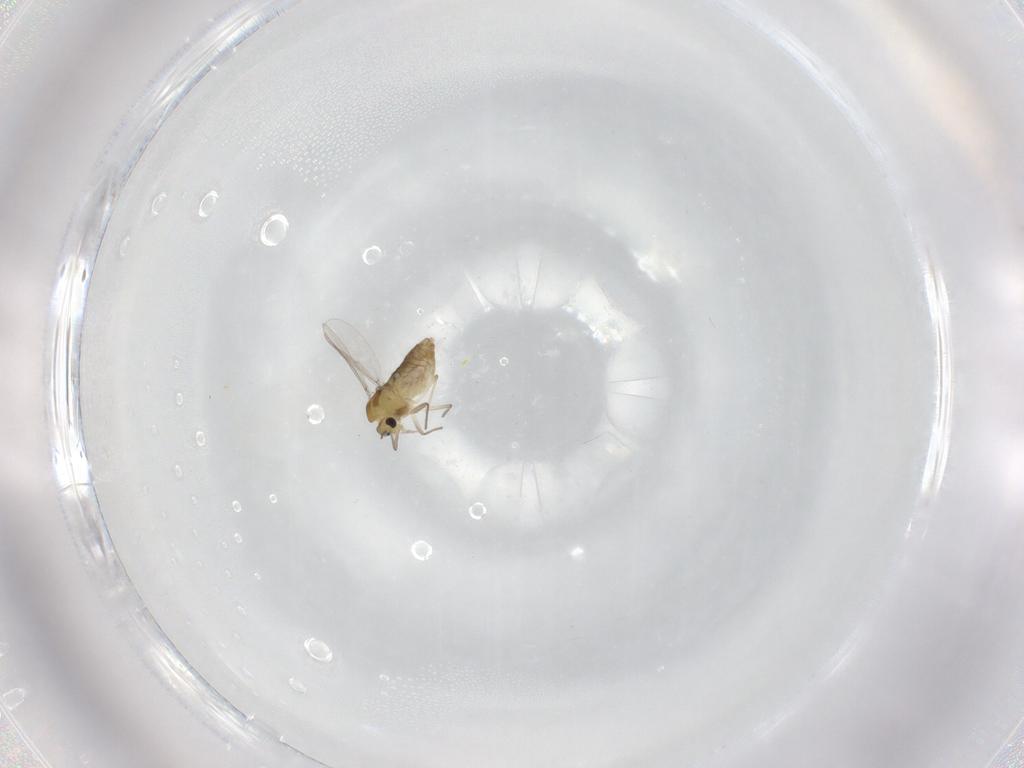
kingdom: Animalia
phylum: Arthropoda
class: Insecta
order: Diptera
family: Chironomidae
